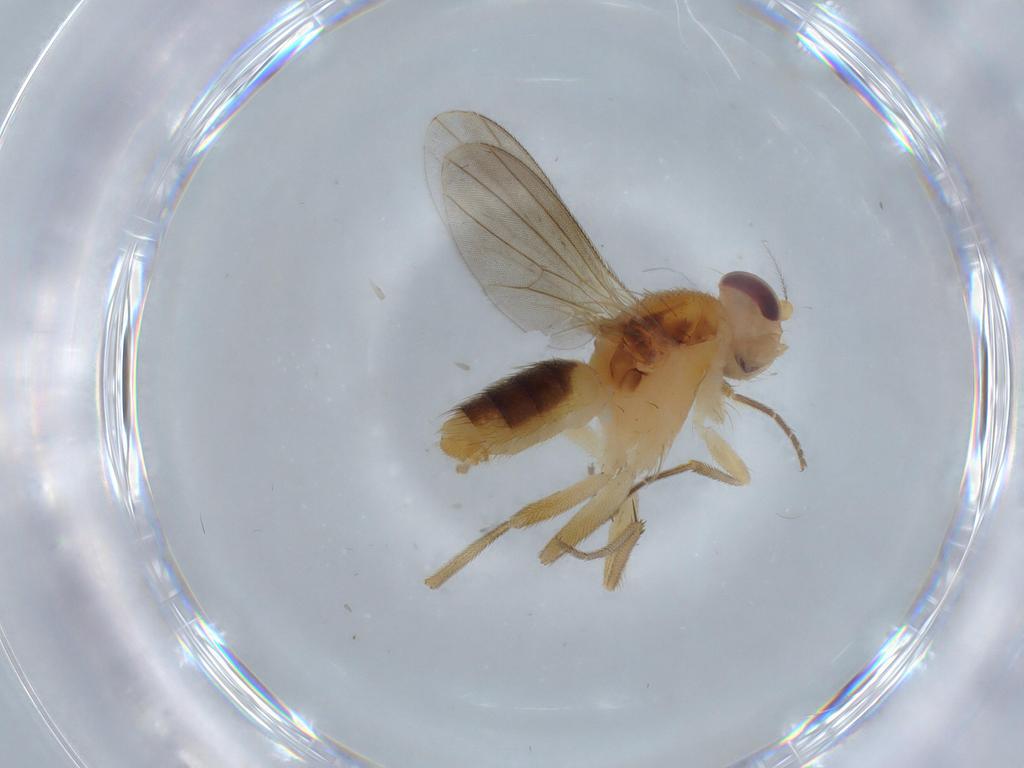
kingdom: Animalia
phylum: Arthropoda
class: Insecta
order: Diptera
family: Agromyzidae
